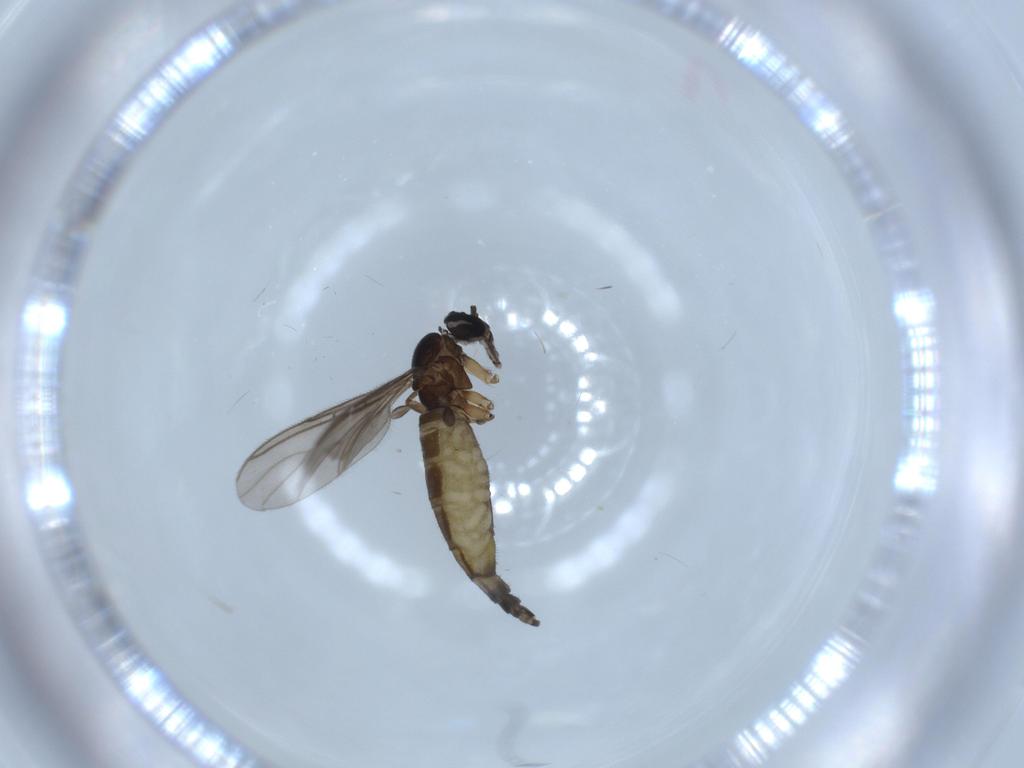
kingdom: Animalia
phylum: Arthropoda
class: Insecta
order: Diptera
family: Sciaridae
